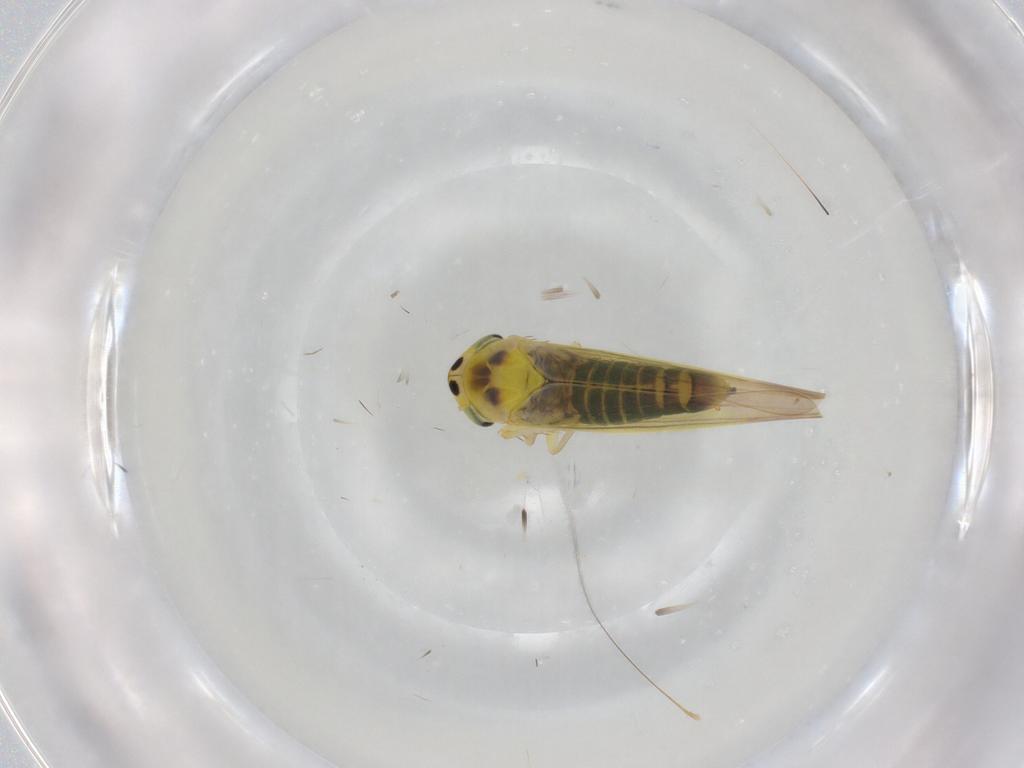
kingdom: Animalia
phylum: Arthropoda
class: Insecta
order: Hemiptera
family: Cicadellidae
